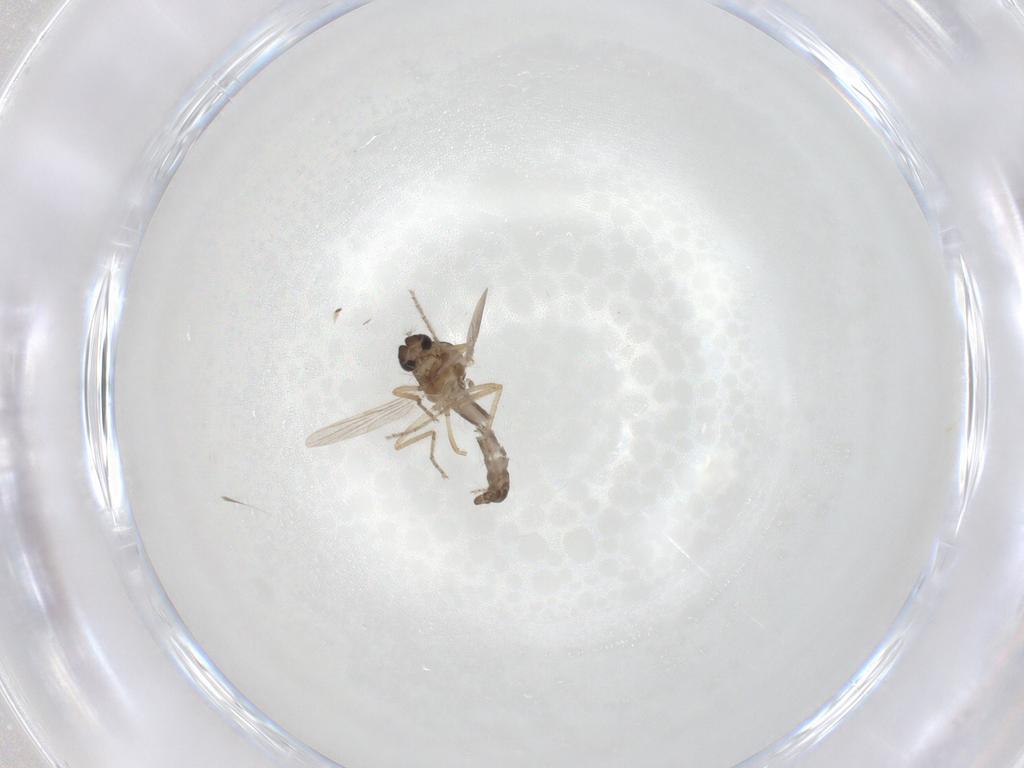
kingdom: Animalia
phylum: Arthropoda
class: Insecta
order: Diptera
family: Ceratopogonidae
